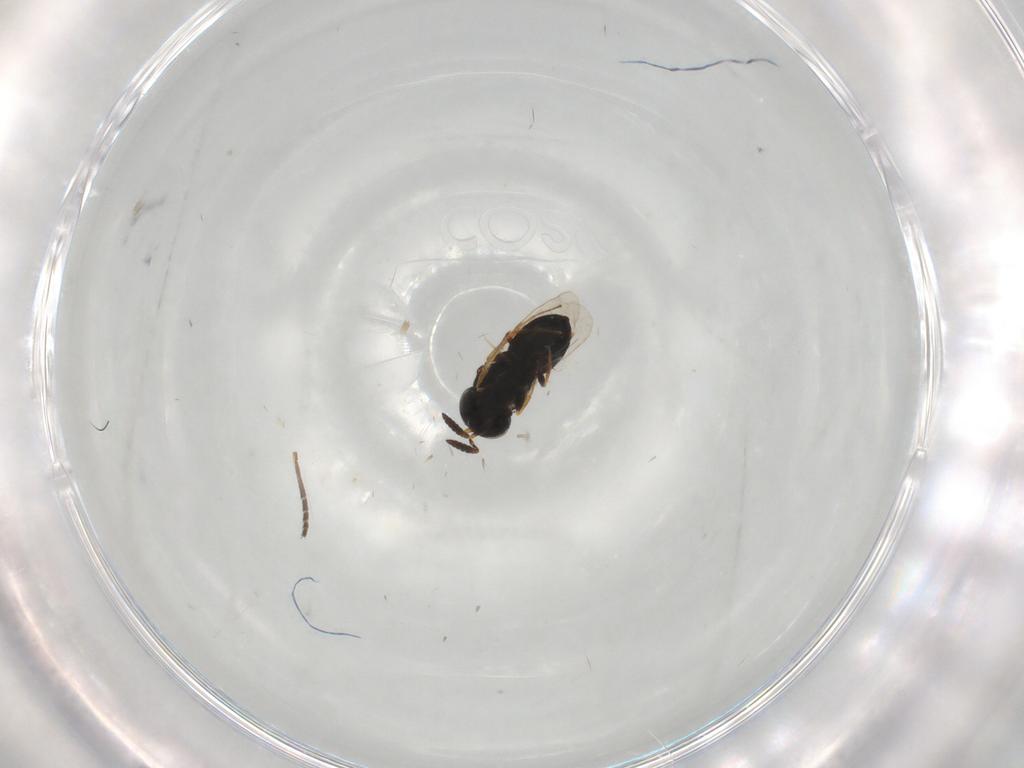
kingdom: Animalia
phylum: Arthropoda
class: Insecta
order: Hymenoptera
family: Scelionidae
